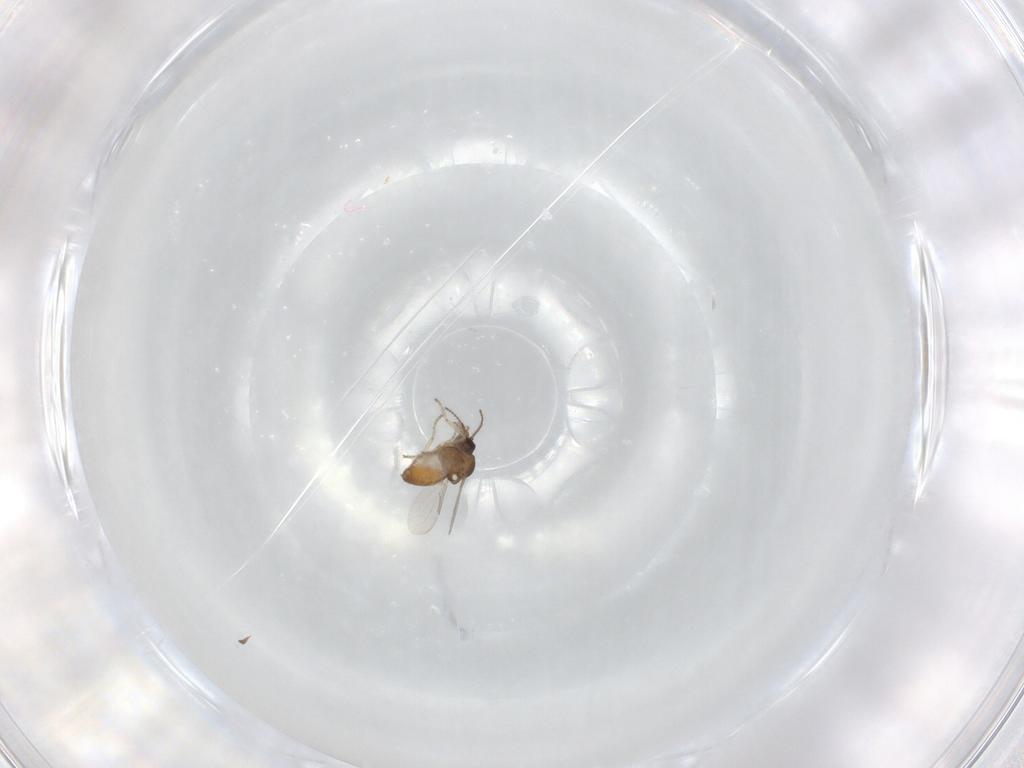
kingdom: Animalia
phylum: Arthropoda
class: Insecta
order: Diptera
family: Ceratopogonidae
